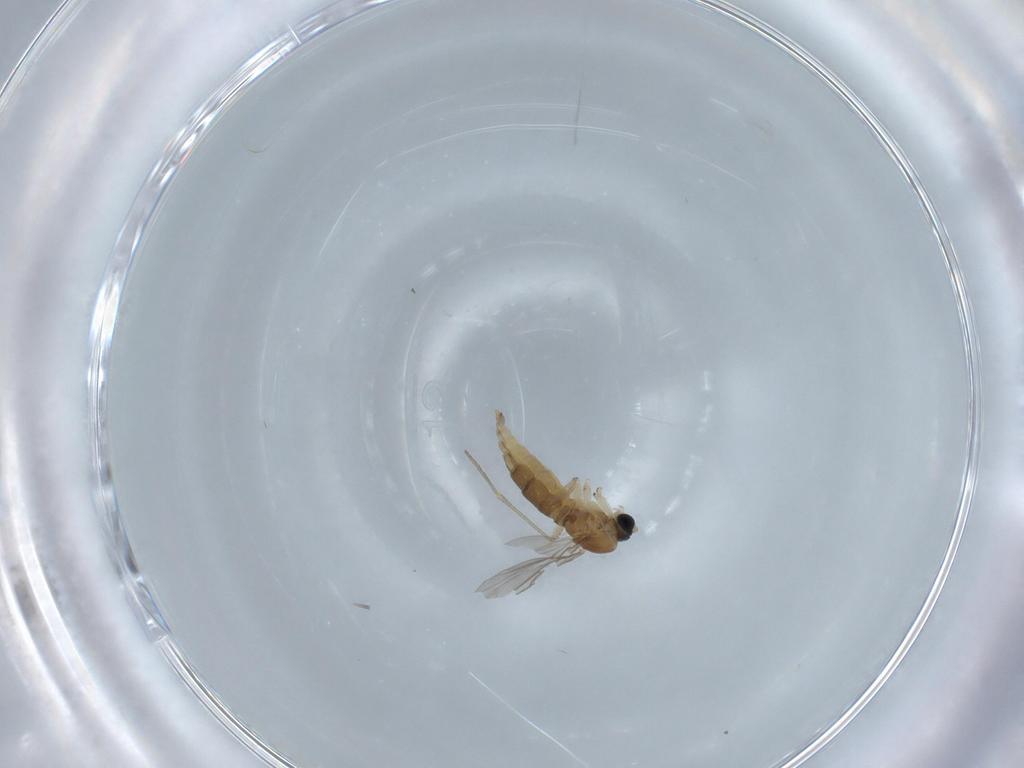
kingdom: Animalia
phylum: Arthropoda
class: Insecta
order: Diptera
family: Sciaridae
